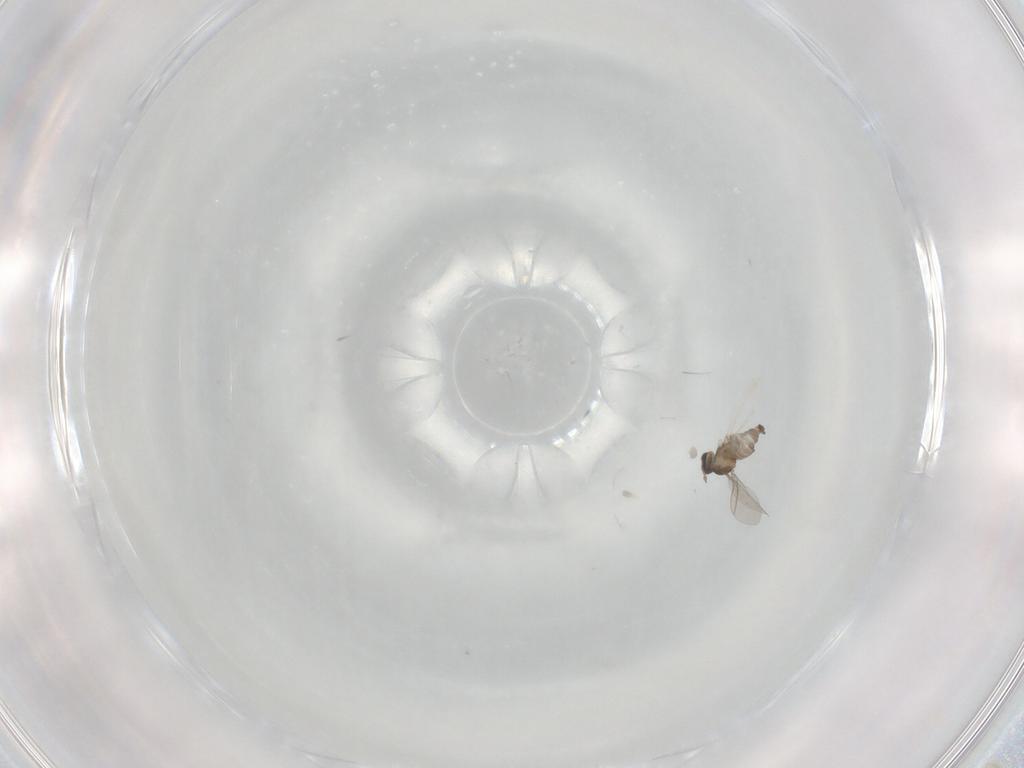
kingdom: Animalia
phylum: Arthropoda
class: Insecta
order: Diptera
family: Cecidomyiidae
